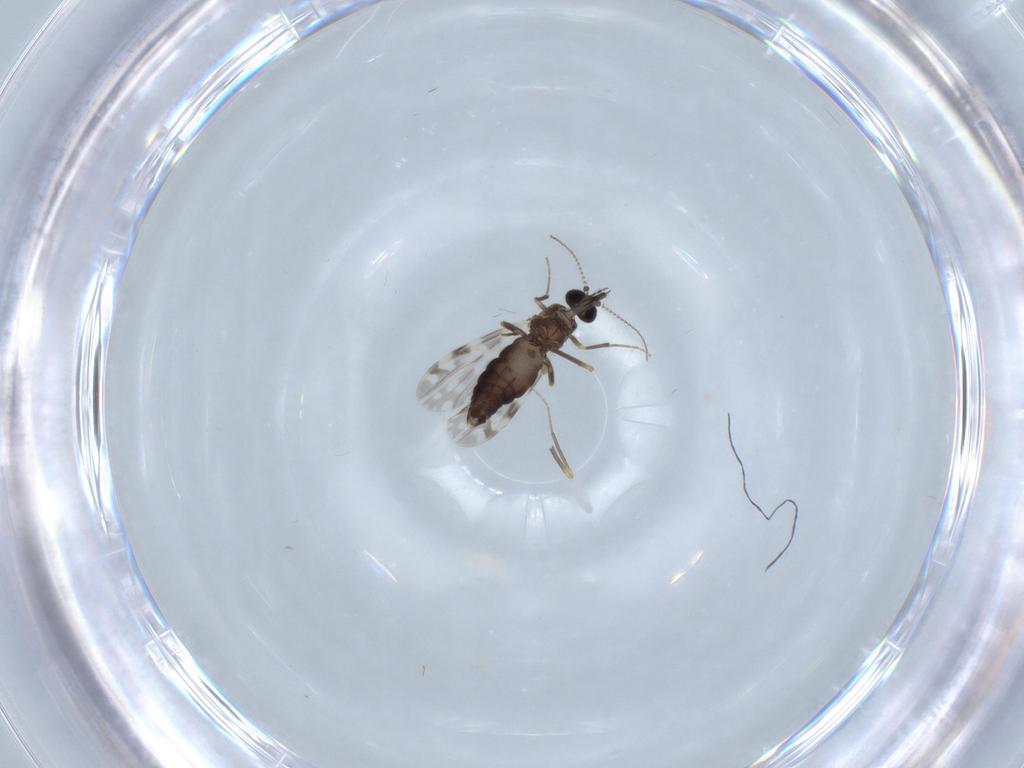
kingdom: Animalia
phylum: Arthropoda
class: Insecta
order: Diptera
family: Ceratopogonidae
